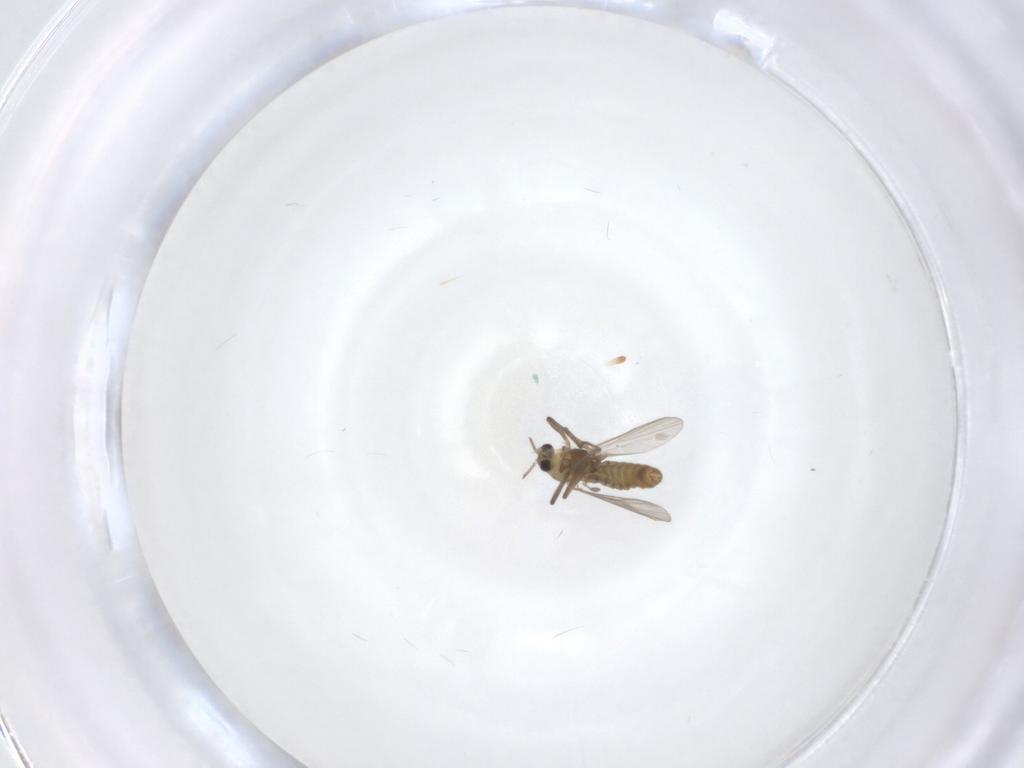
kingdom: Animalia
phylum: Arthropoda
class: Insecta
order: Diptera
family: Chironomidae
